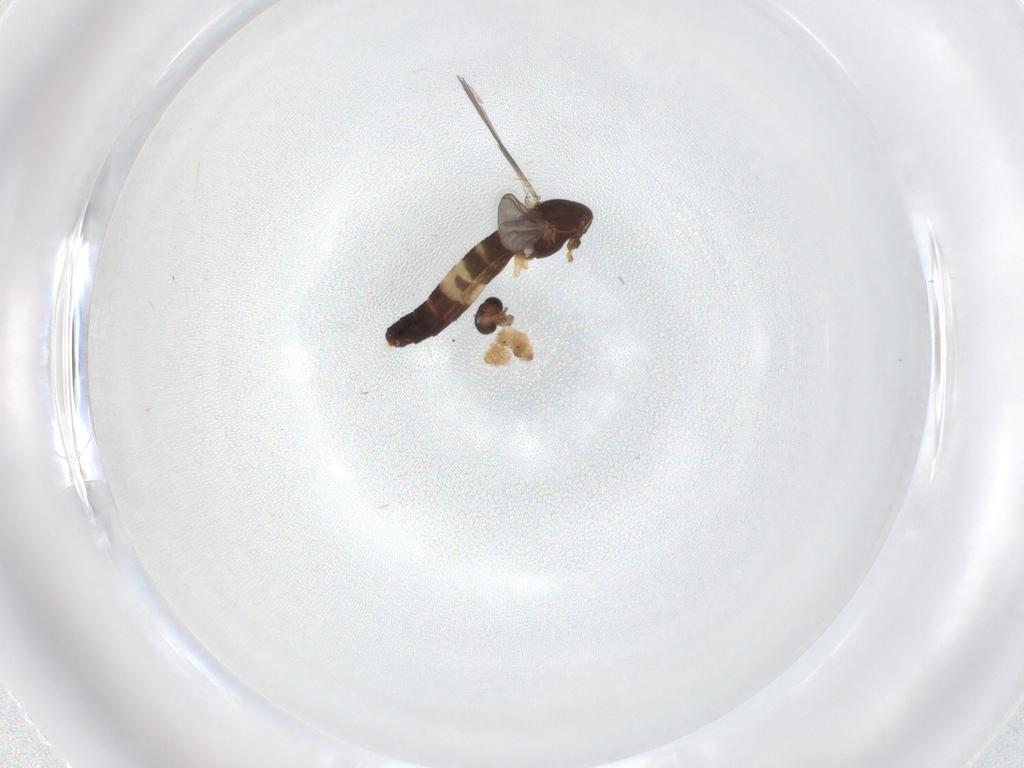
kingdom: Animalia
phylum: Arthropoda
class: Insecta
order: Diptera
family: Chironomidae
